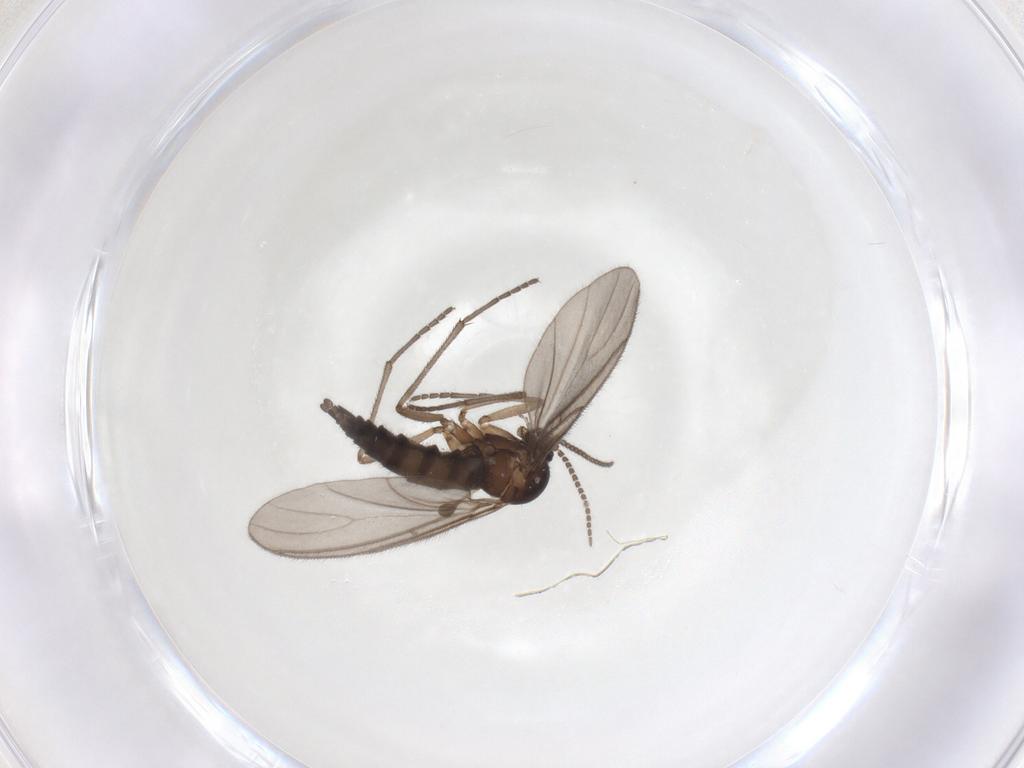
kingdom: Animalia
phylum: Arthropoda
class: Insecta
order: Diptera
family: Sciaridae
